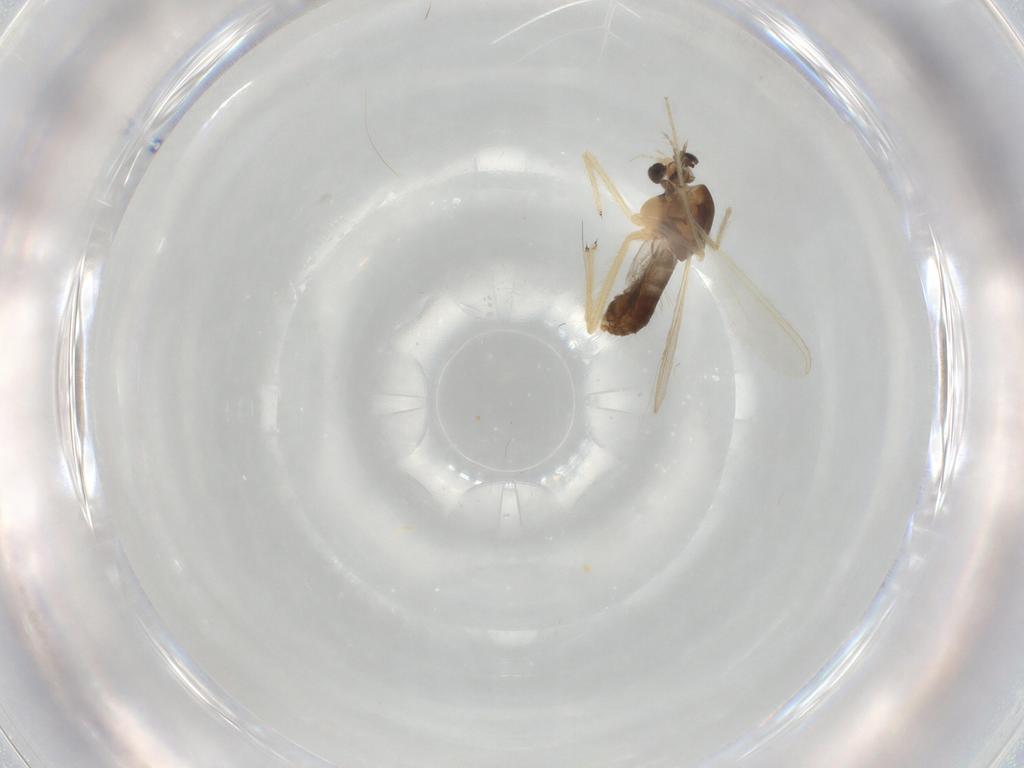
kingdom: Animalia
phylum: Arthropoda
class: Insecta
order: Diptera
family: Chironomidae
